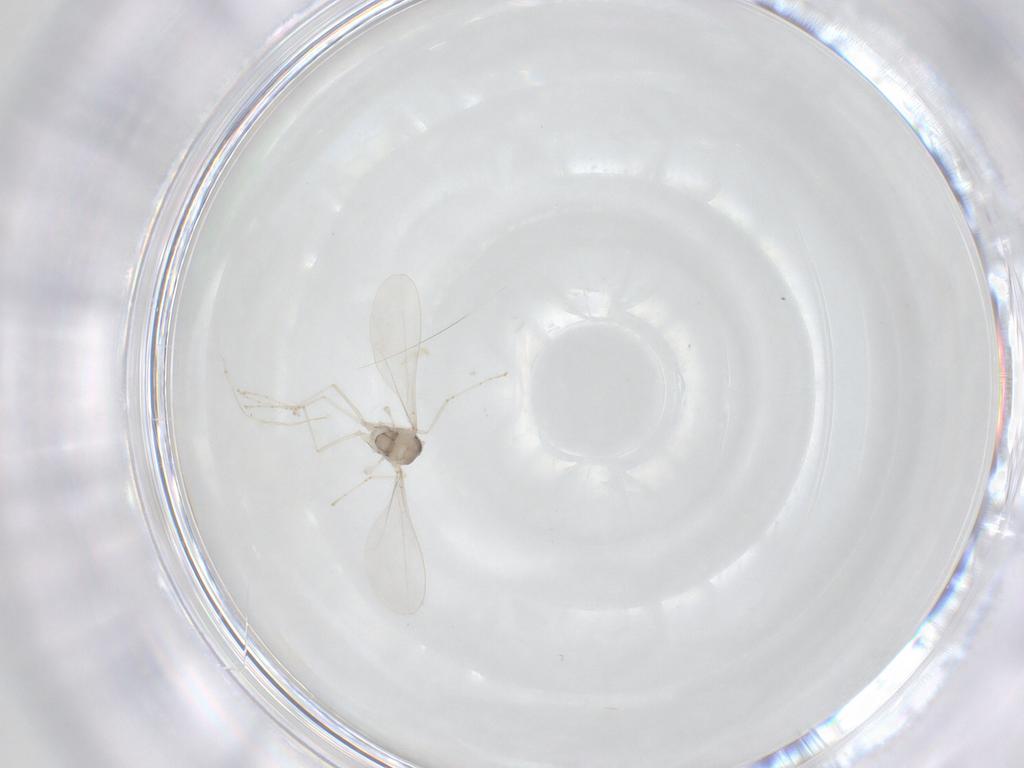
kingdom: Animalia
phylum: Arthropoda
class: Insecta
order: Diptera
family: Cecidomyiidae
